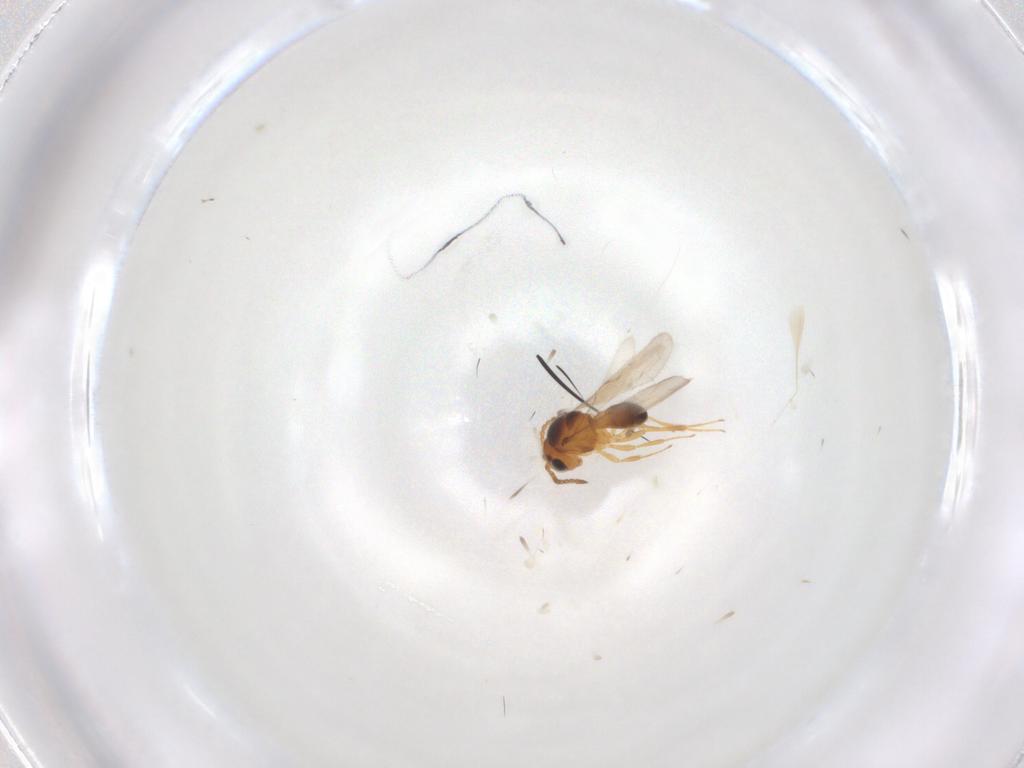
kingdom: Animalia
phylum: Arthropoda
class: Insecta
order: Hymenoptera
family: Scelionidae
